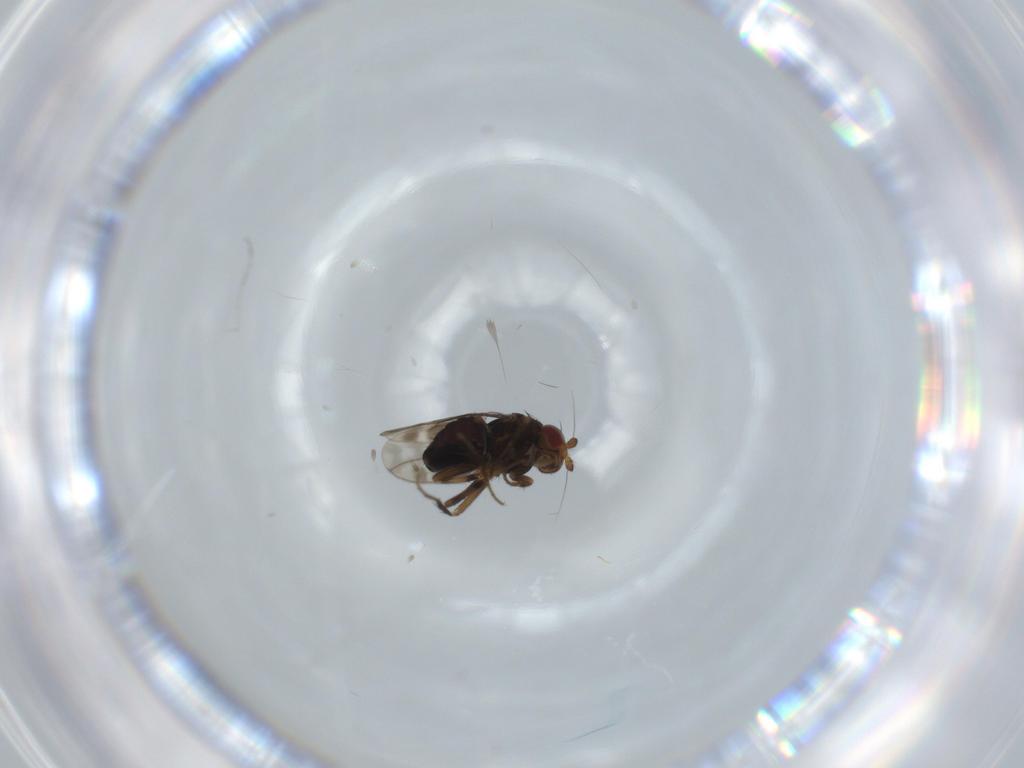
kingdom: Animalia
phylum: Arthropoda
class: Insecta
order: Diptera
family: Sphaeroceridae
